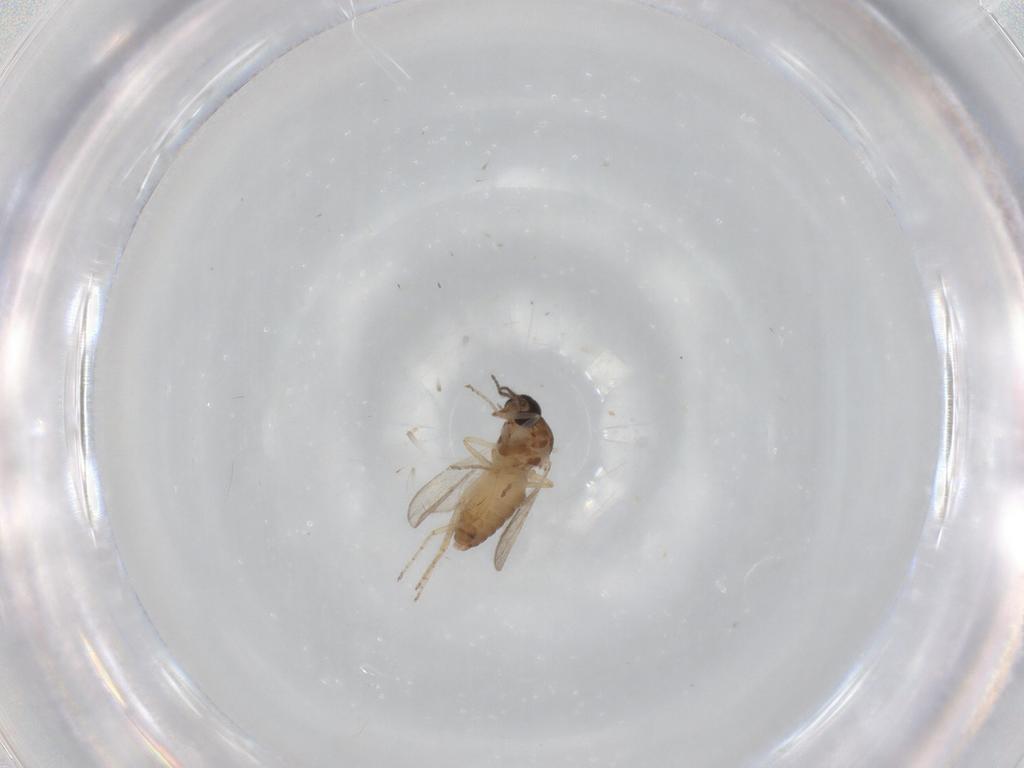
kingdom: Animalia
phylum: Arthropoda
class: Insecta
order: Diptera
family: Ceratopogonidae
